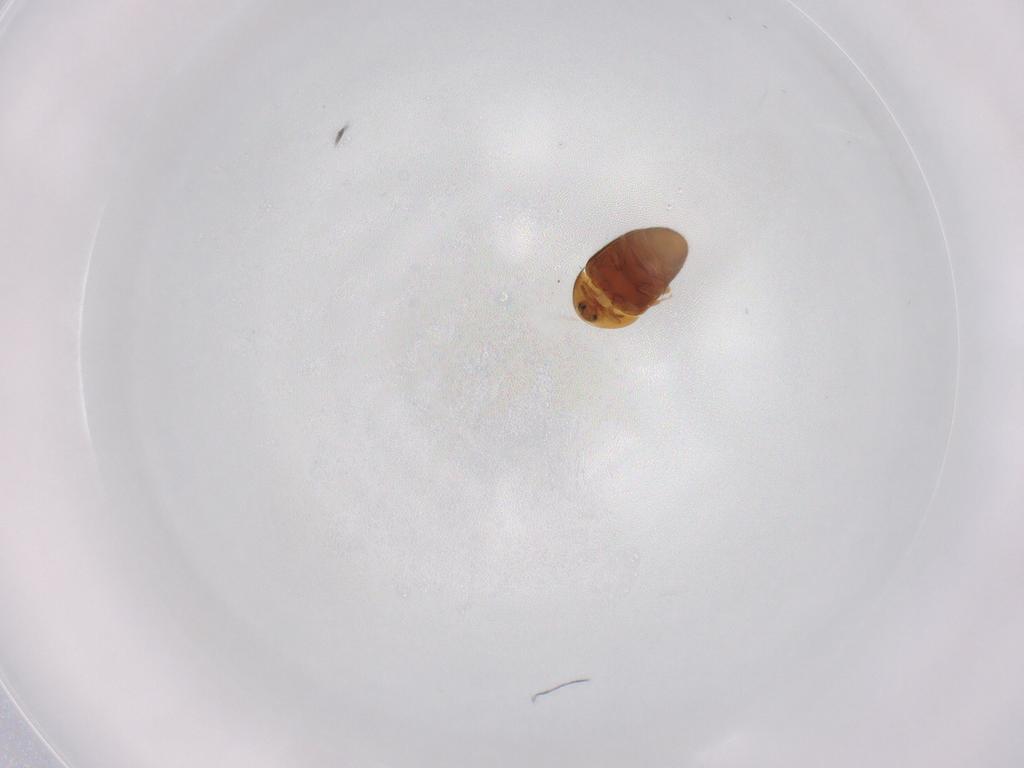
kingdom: Animalia
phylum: Arthropoda
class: Insecta
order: Coleoptera
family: Corylophidae
